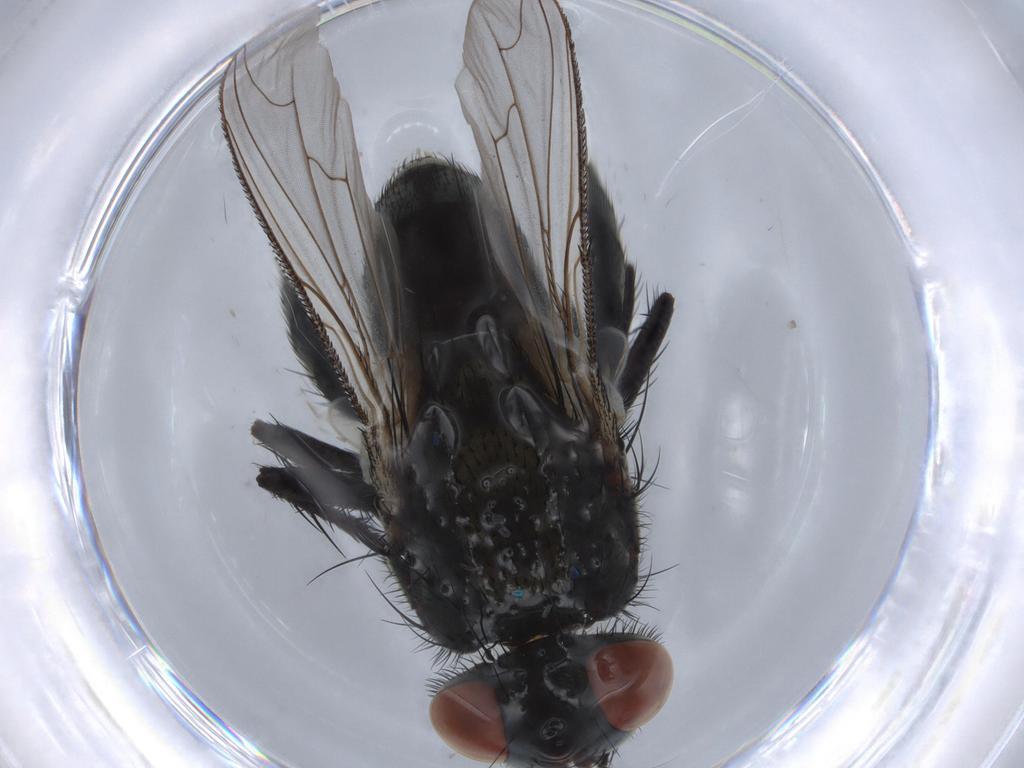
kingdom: Animalia
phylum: Arthropoda
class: Insecta
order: Diptera
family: Sarcophagidae
